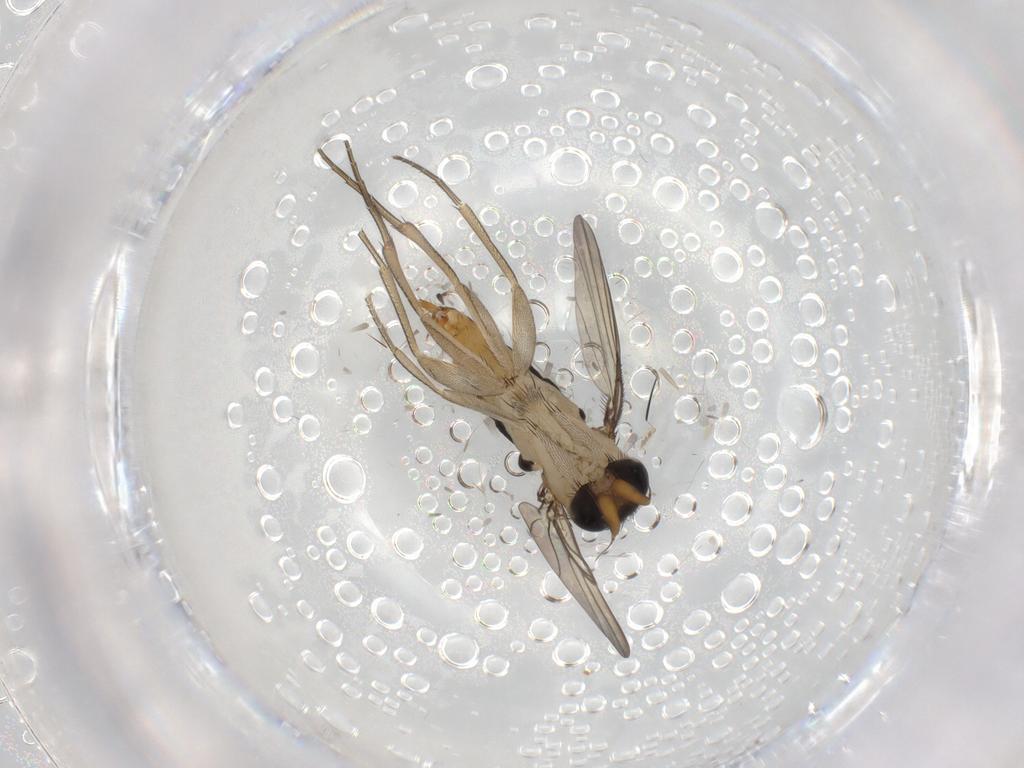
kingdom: Animalia
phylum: Arthropoda
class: Insecta
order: Diptera
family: Phoridae
